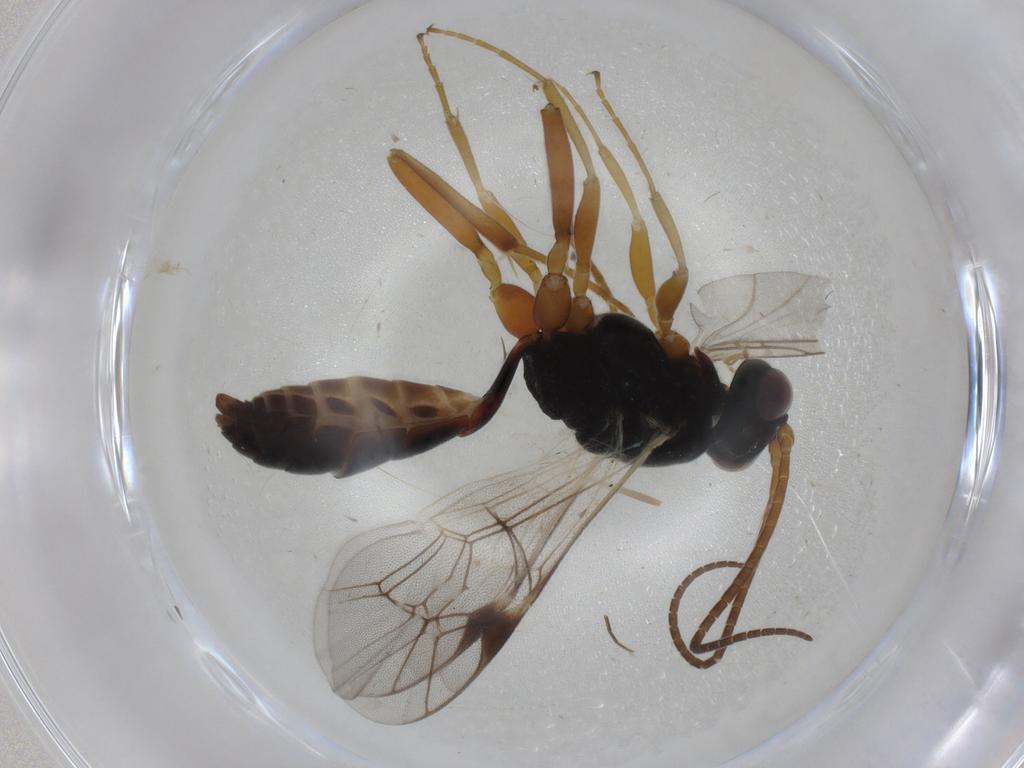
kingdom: Animalia
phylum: Arthropoda
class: Insecta
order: Hymenoptera
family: Ichneumonidae
